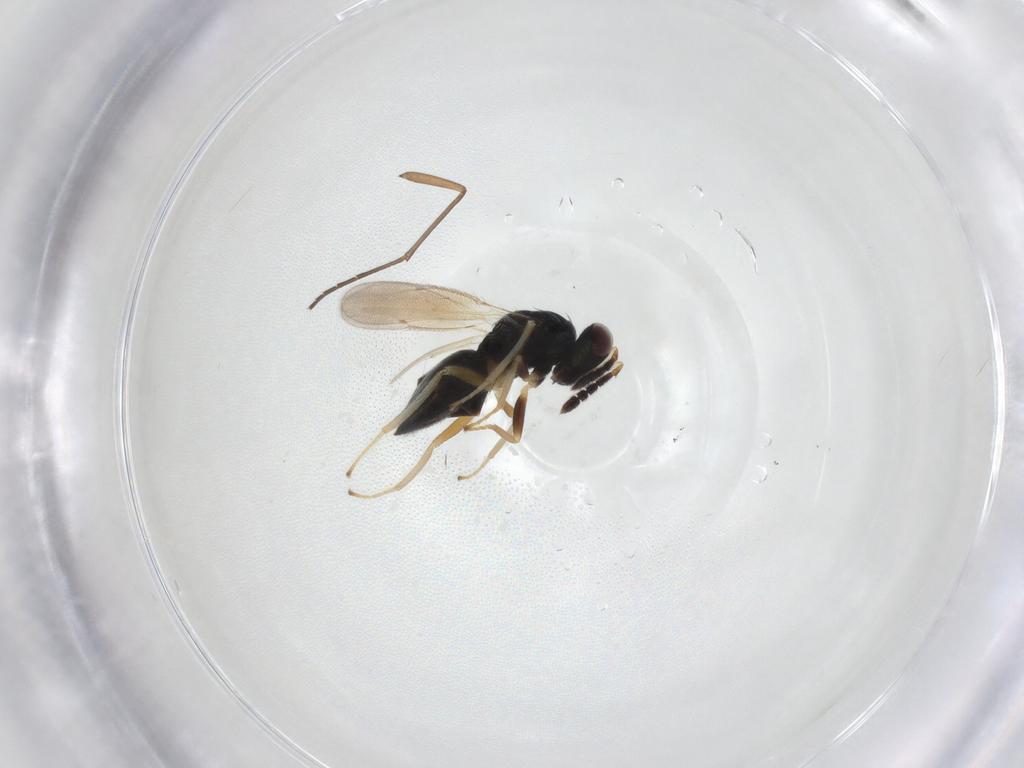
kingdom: Animalia
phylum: Arthropoda
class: Insecta
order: Hymenoptera
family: Eulophidae
